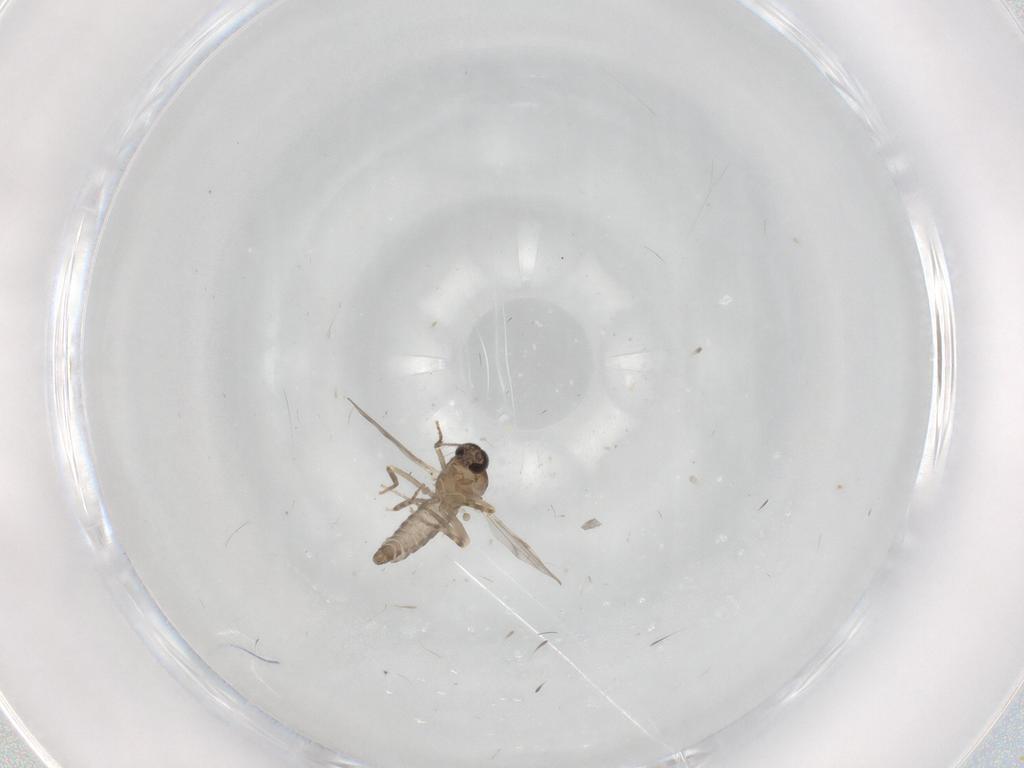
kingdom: Animalia
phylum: Arthropoda
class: Insecta
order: Diptera
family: Ceratopogonidae
